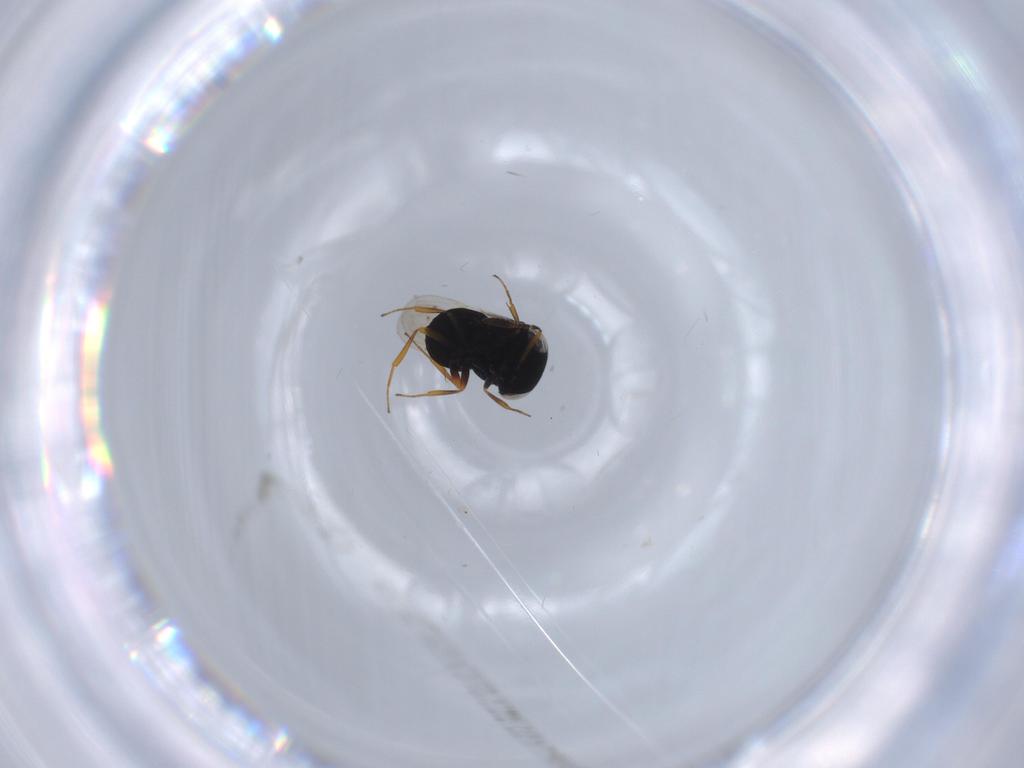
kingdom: Animalia
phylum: Arthropoda
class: Insecta
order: Hymenoptera
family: Scelionidae
